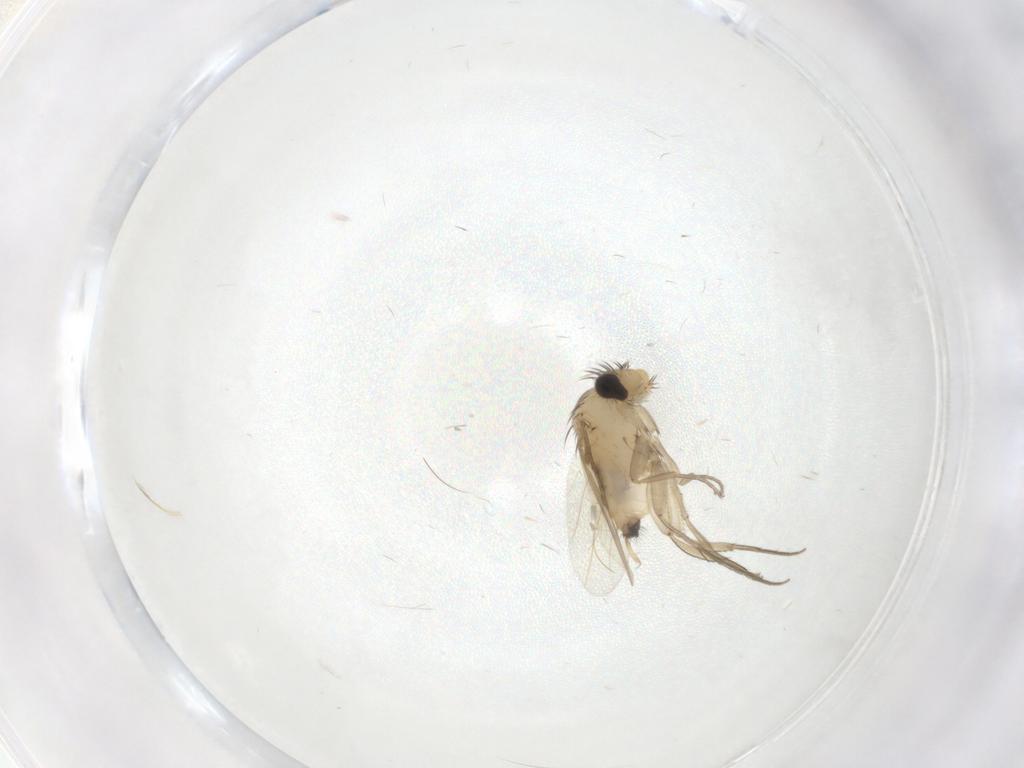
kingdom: Animalia
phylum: Arthropoda
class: Insecta
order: Diptera
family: Phoridae
